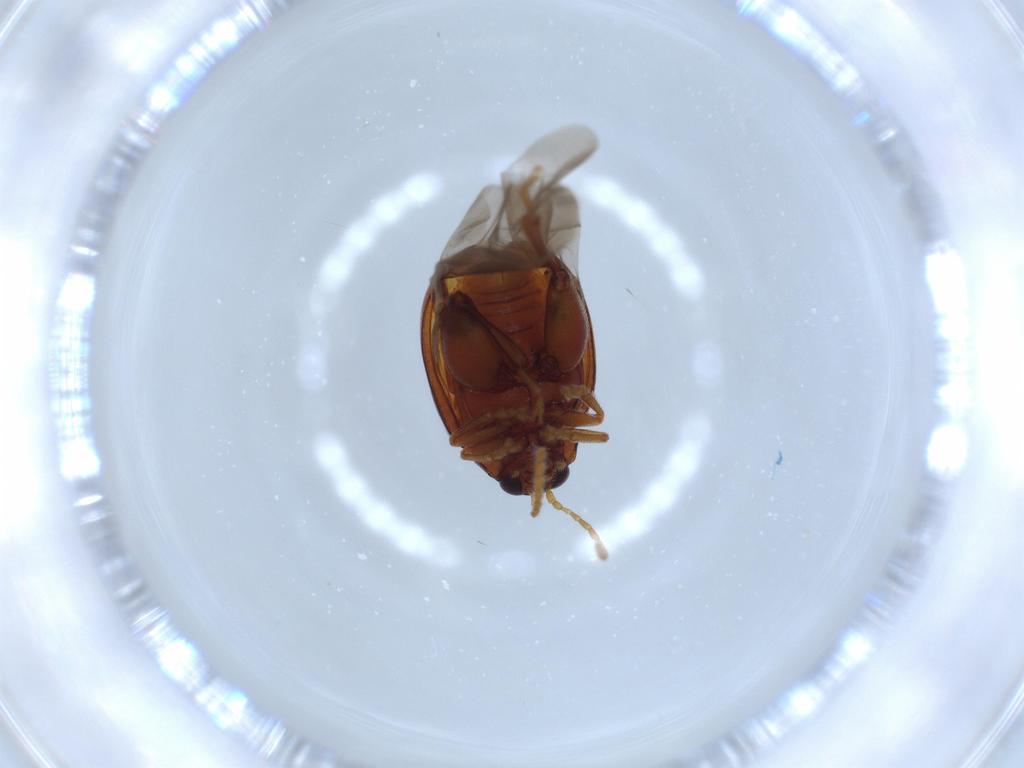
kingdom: Animalia
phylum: Arthropoda
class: Insecta
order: Coleoptera
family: Chrysomelidae
